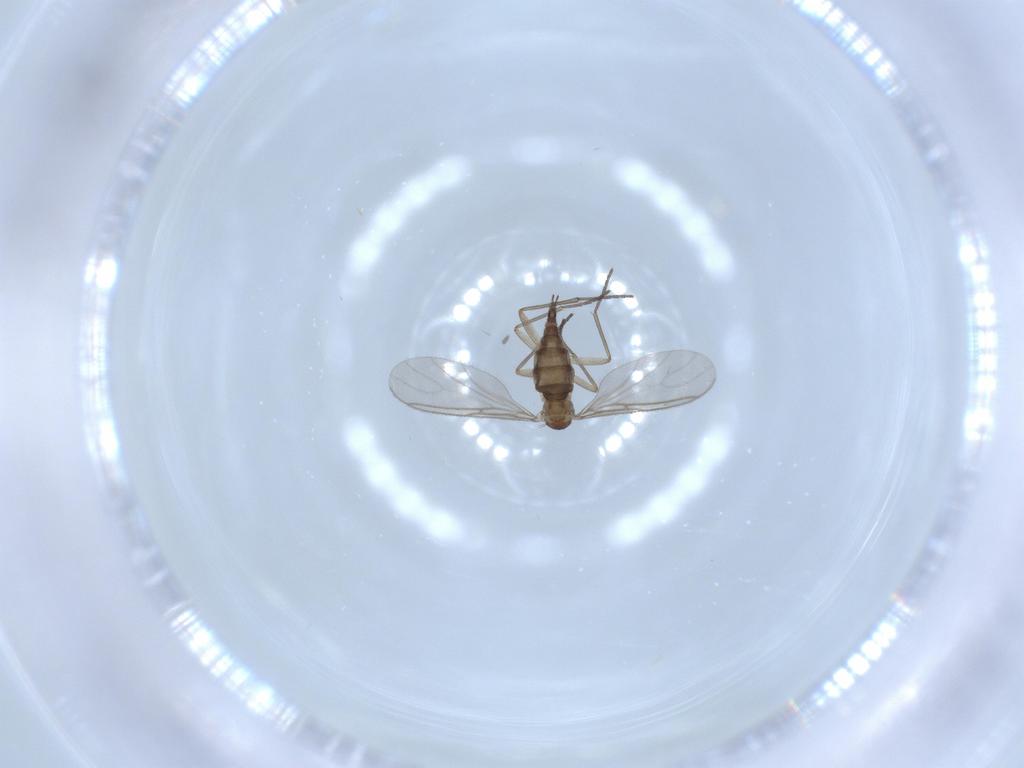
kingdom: Animalia
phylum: Arthropoda
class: Insecta
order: Diptera
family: Sciaridae
